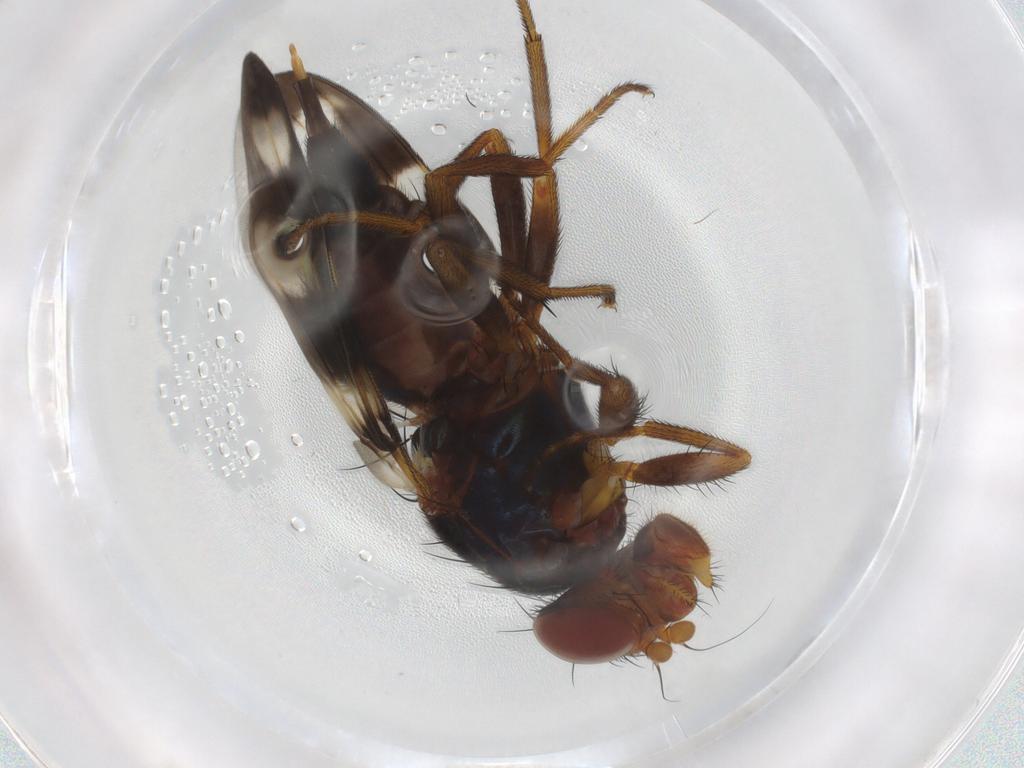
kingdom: Animalia
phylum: Arthropoda
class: Insecta
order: Diptera
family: Ulidiidae
